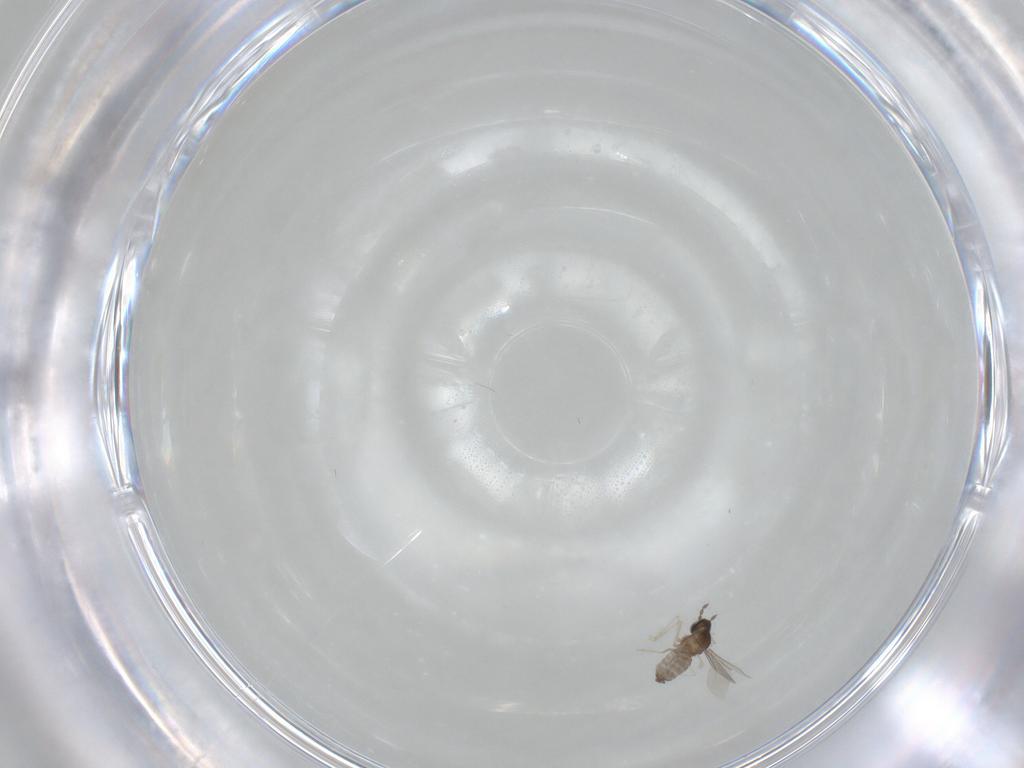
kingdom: Animalia
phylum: Arthropoda
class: Insecta
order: Diptera
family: Cecidomyiidae
